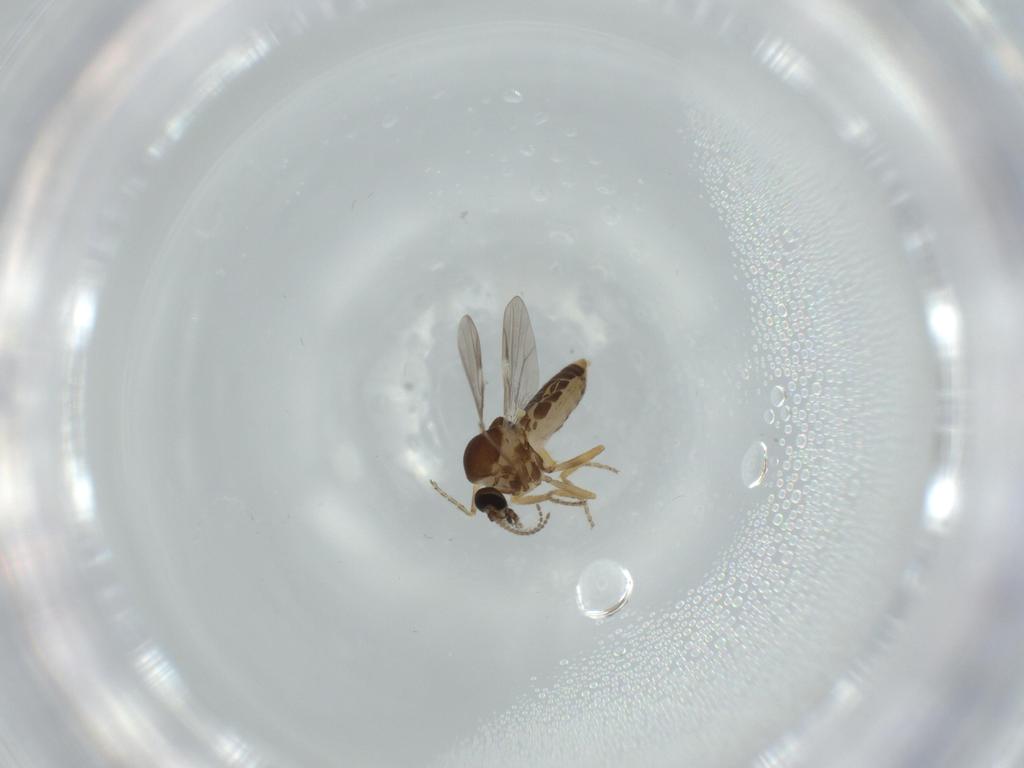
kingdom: Animalia
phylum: Arthropoda
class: Insecta
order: Diptera
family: Ceratopogonidae
